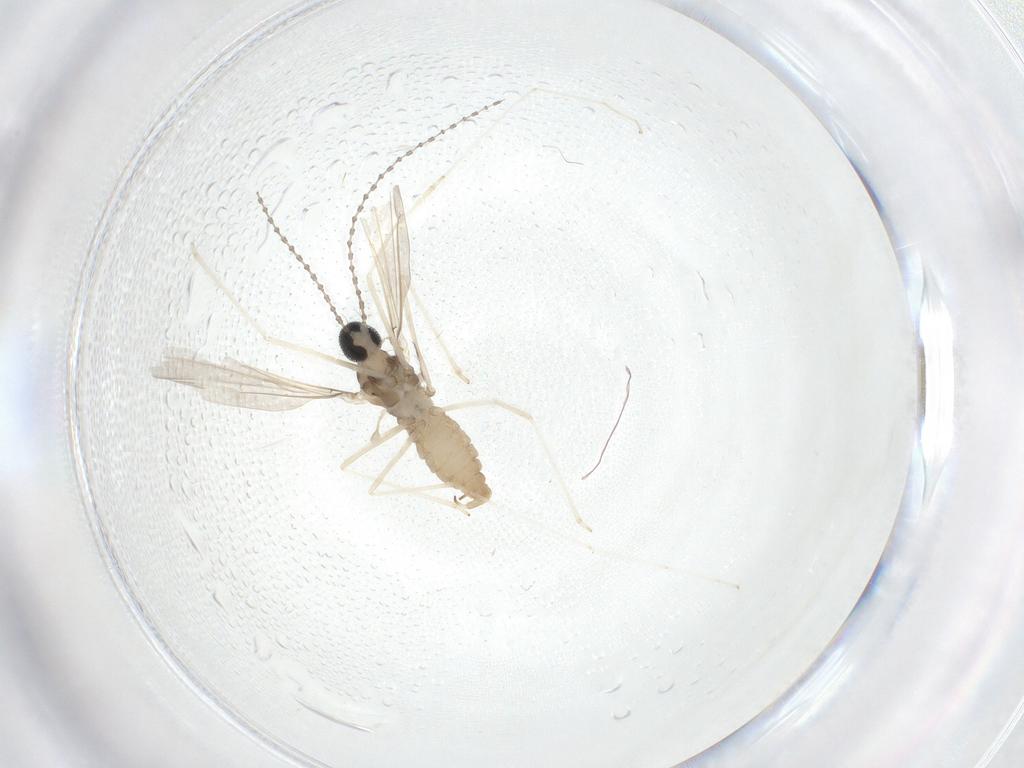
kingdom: Animalia
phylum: Arthropoda
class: Insecta
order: Diptera
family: Cecidomyiidae
